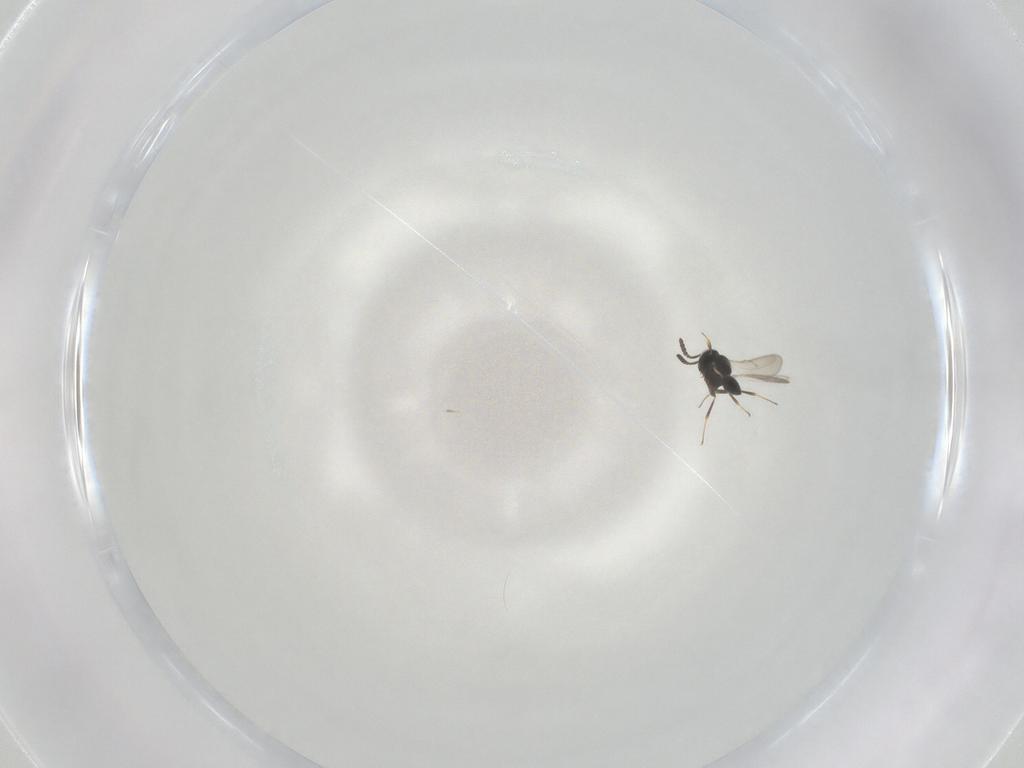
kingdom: Animalia
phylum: Arthropoda
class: Insecta
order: Hymenoptera
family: Scelionidae
